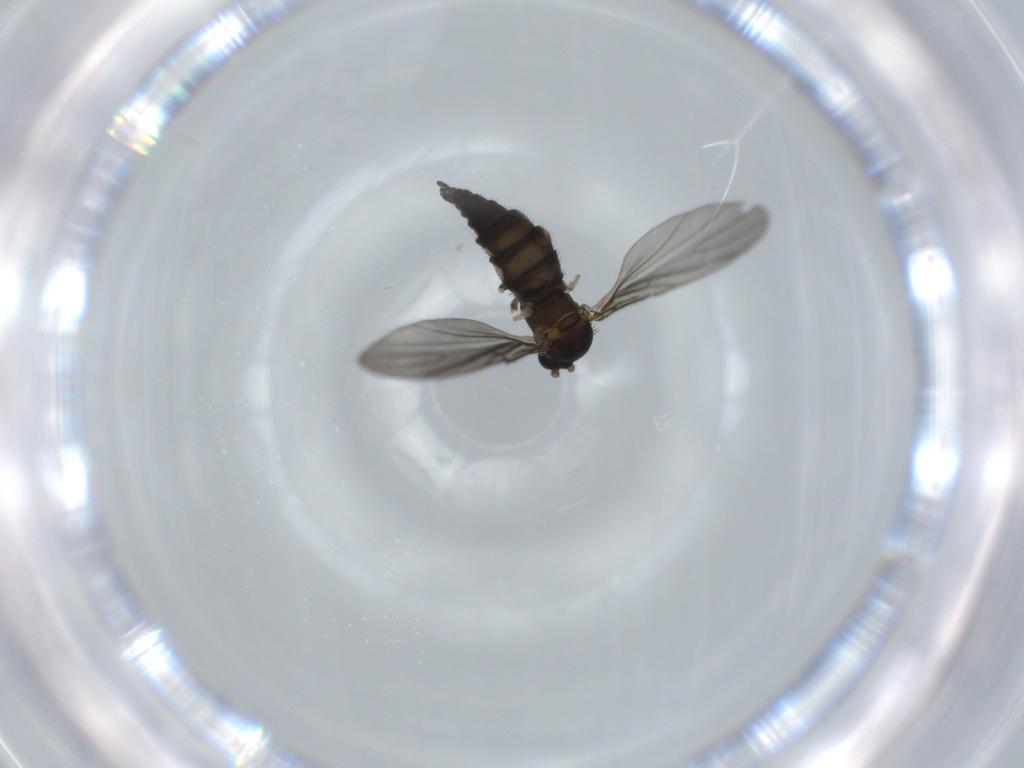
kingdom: Animalia
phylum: Arthropoda
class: Insecta
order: Diptera
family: Sciaridae
